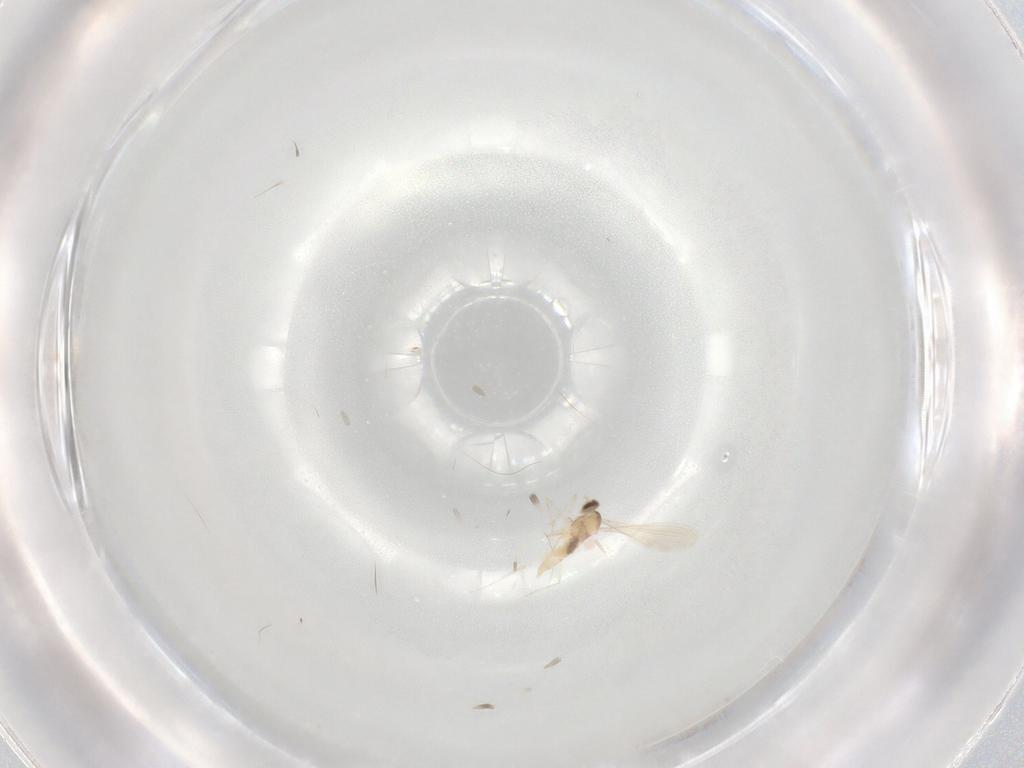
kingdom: Animalia
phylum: Arthropoda
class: Insecta
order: Diptera
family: Cecidomyiidae
